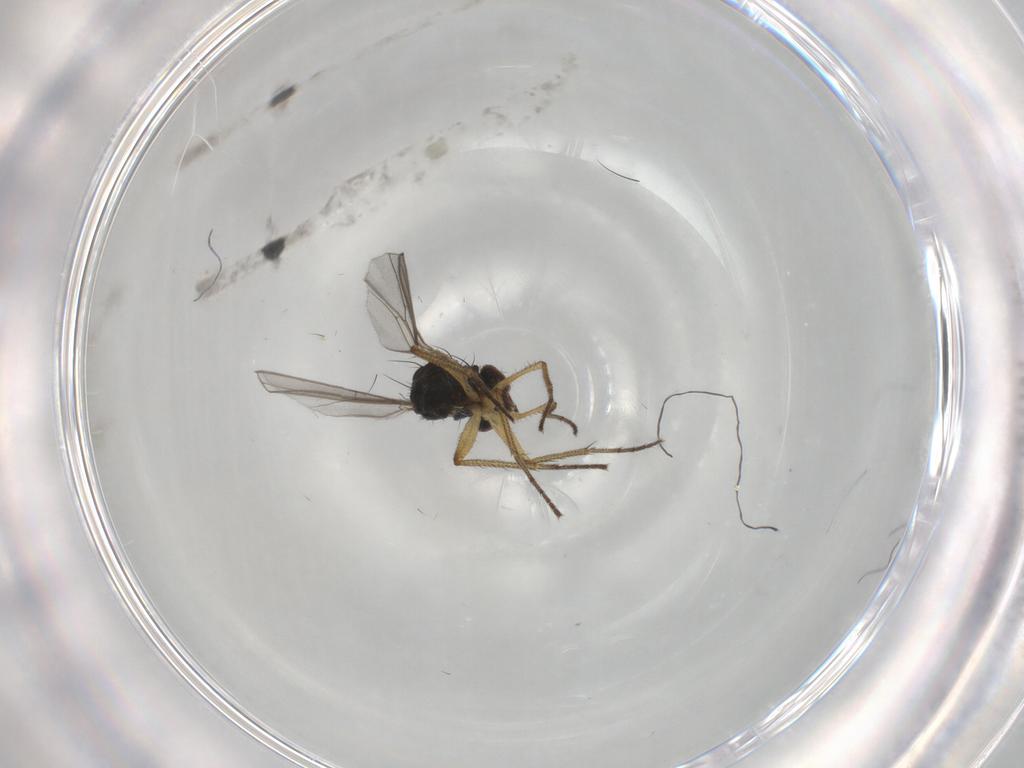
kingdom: Animalia
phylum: Arthropoda
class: Insecta
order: Diptera
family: Dolichopodidae
